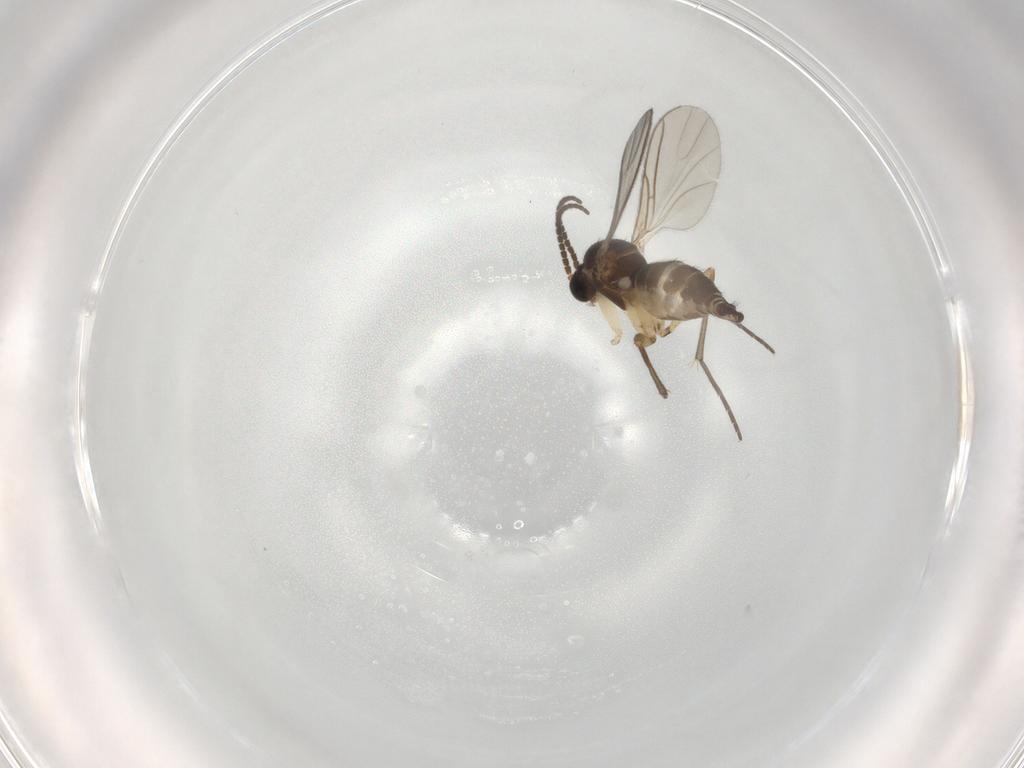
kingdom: Animalia
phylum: Arthropoda
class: Insecta
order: Diptera
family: Sciaridae
